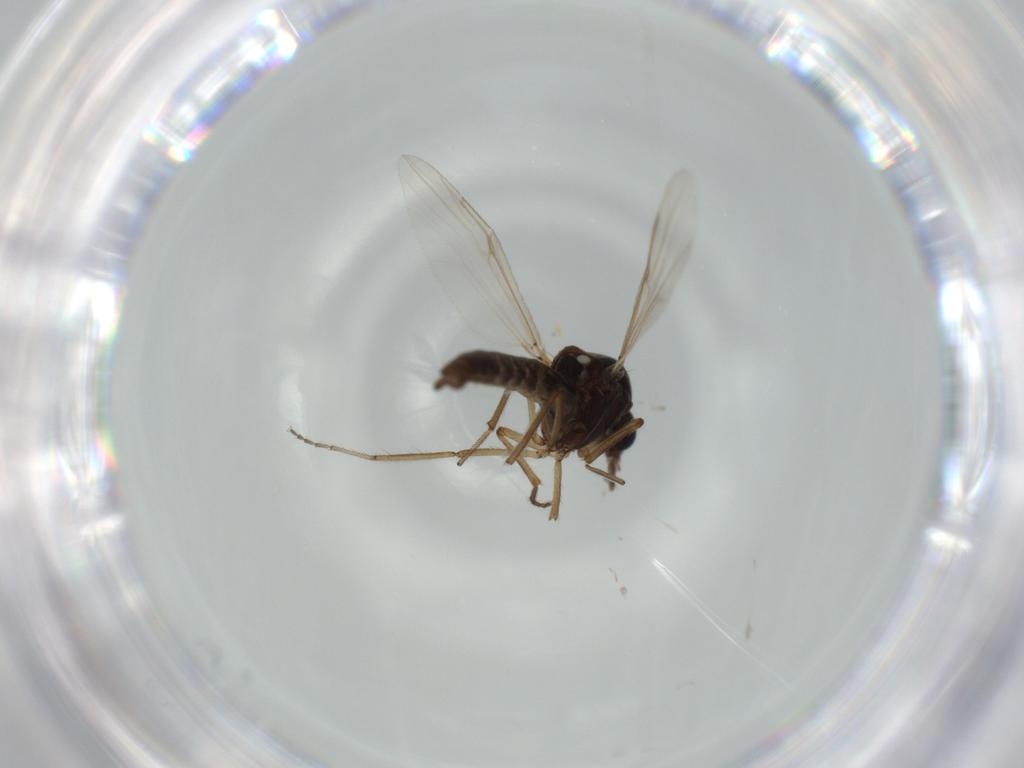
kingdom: Animalia
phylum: Arthropoda
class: Insecta
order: Diptera
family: Ceratopogonidae
